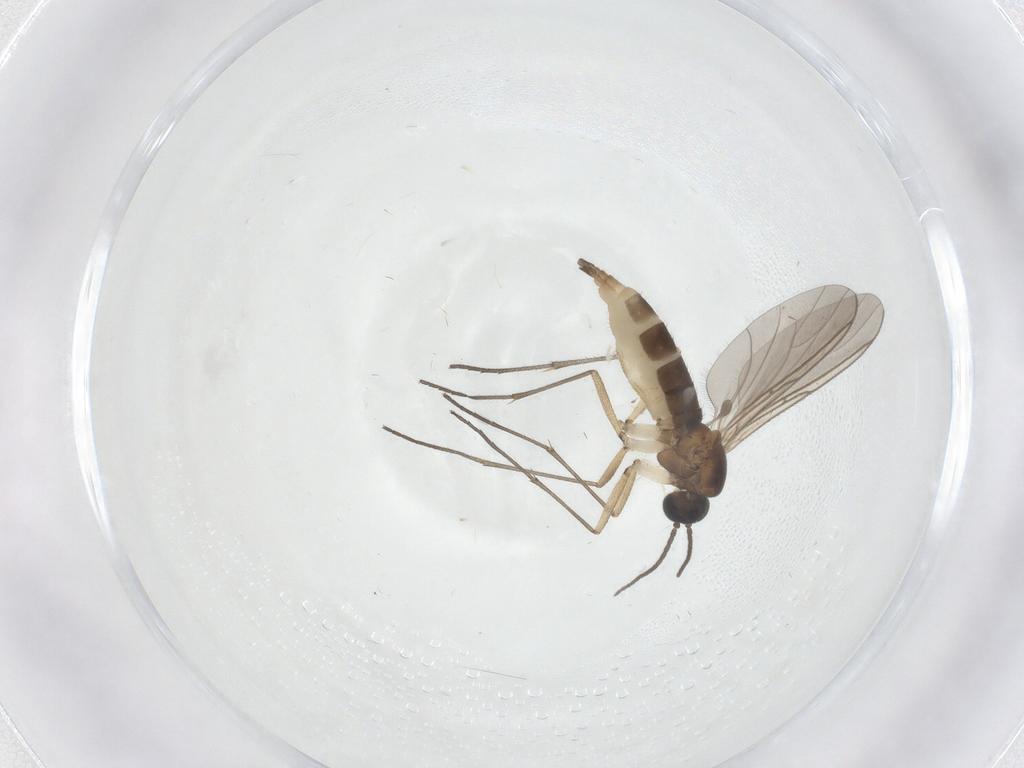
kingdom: Animalia
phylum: Arthropoda
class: Insecta
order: Diptera
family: Sciaridae
